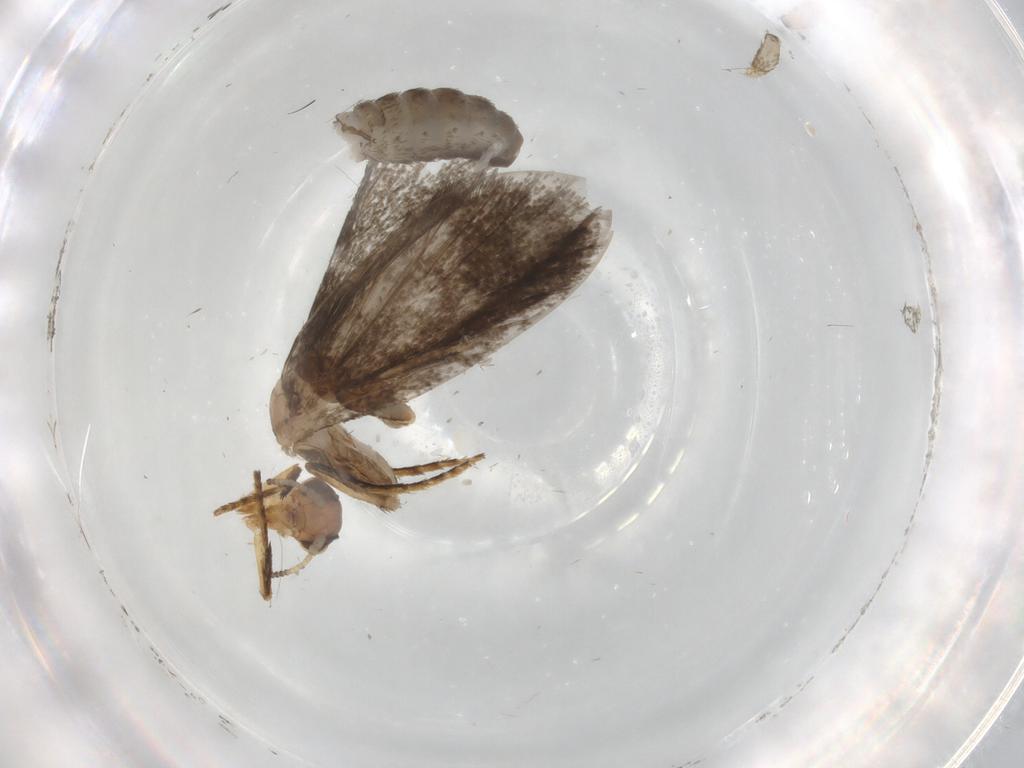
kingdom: Animalia
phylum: Arthropoda
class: Insecta
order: Lepidoptera
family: Micropterigidae
